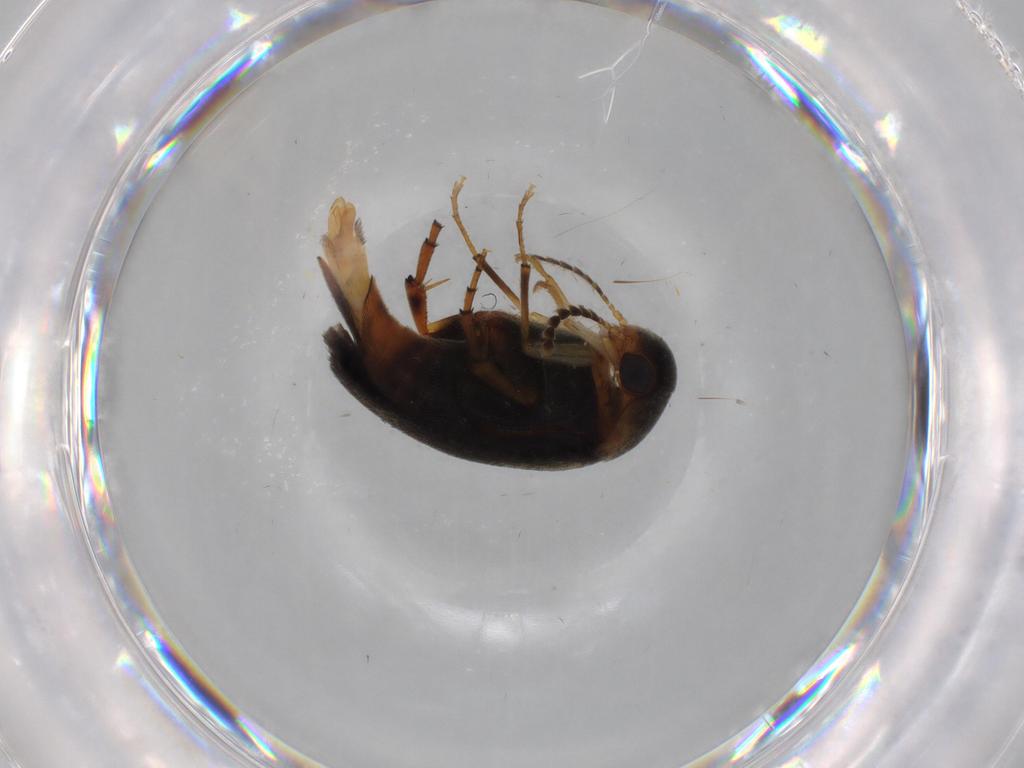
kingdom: Animalia
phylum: Arthropoda
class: Insecta
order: Coleoptera
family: Mordellidae
